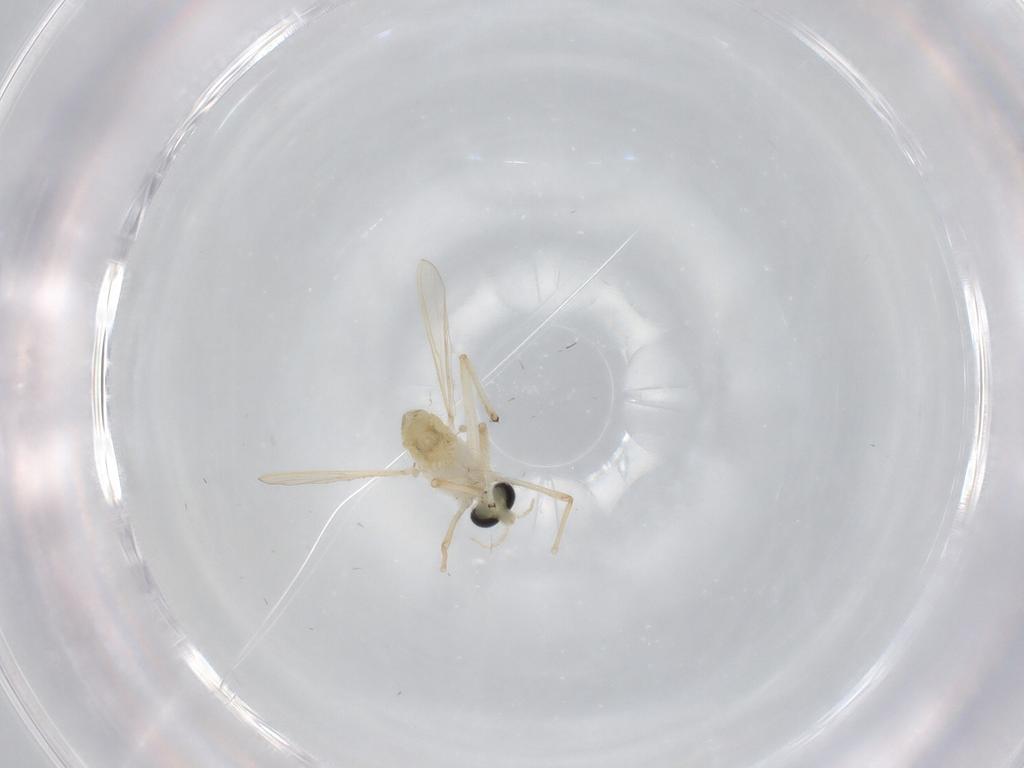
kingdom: Animalia
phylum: Arthropoda
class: Insecta
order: Diptera
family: Chironomidae
